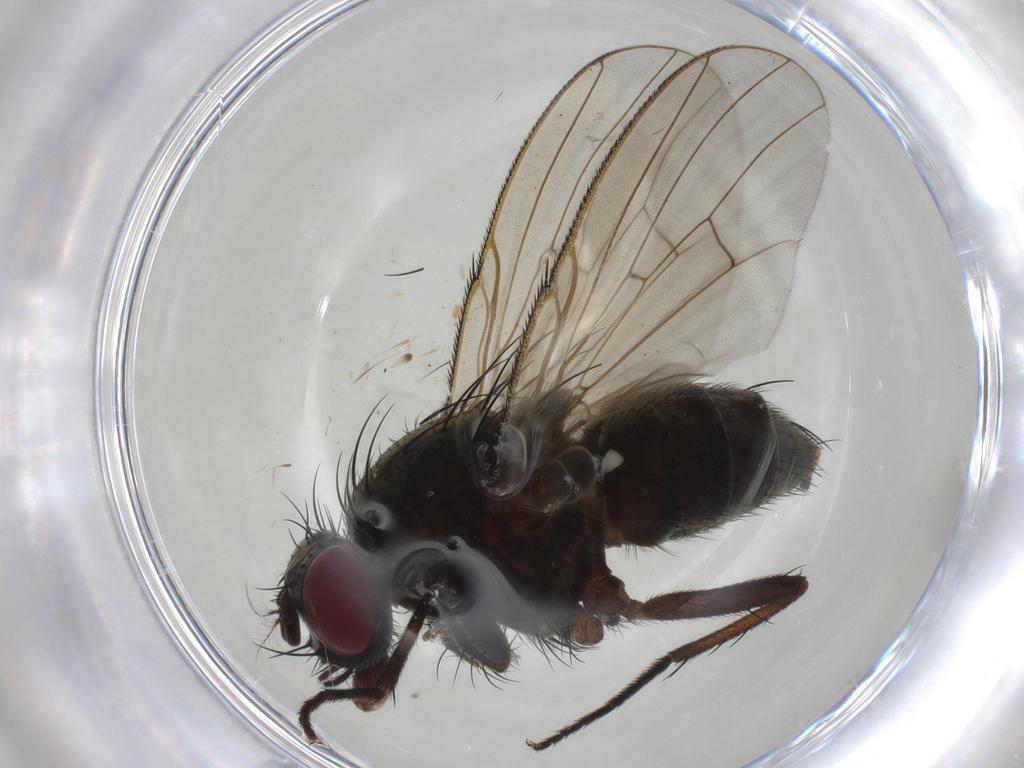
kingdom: Animalia
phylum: Arthropoda
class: Insecta
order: Diptera
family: Muscidae
